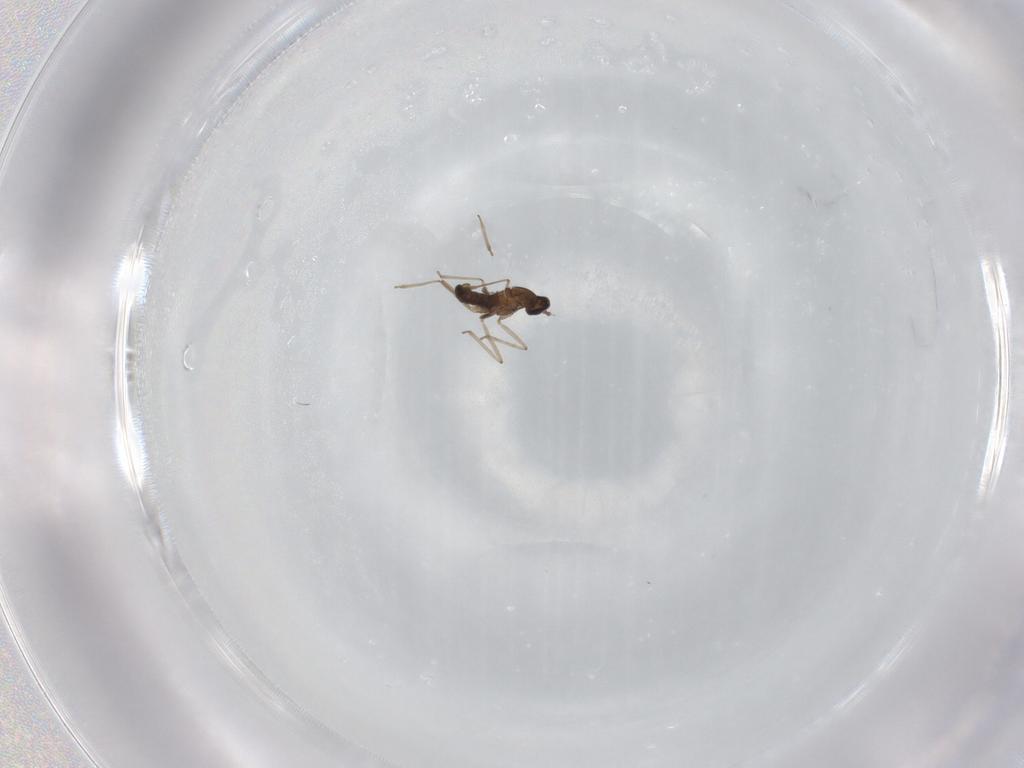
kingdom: Animalia
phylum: Arthropoda
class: Insecta
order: Diptera
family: Cecidomyiidae
